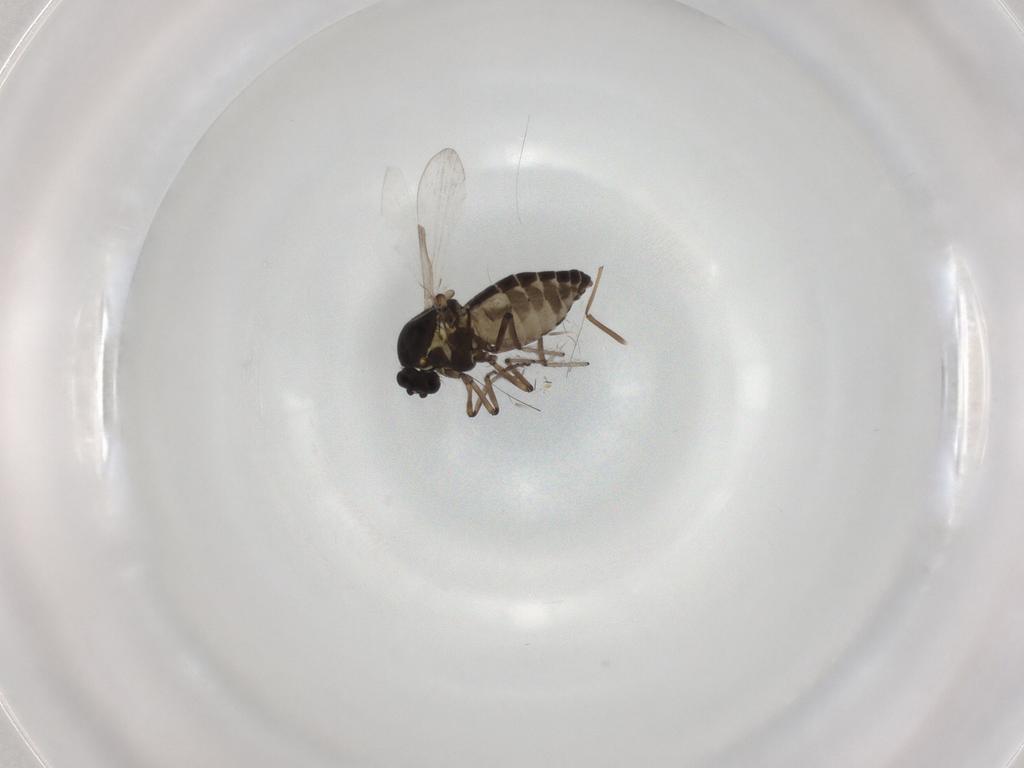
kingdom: Animalia
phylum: Arthropoda
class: Insecta
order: Diptera
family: Ceratopogonidae
